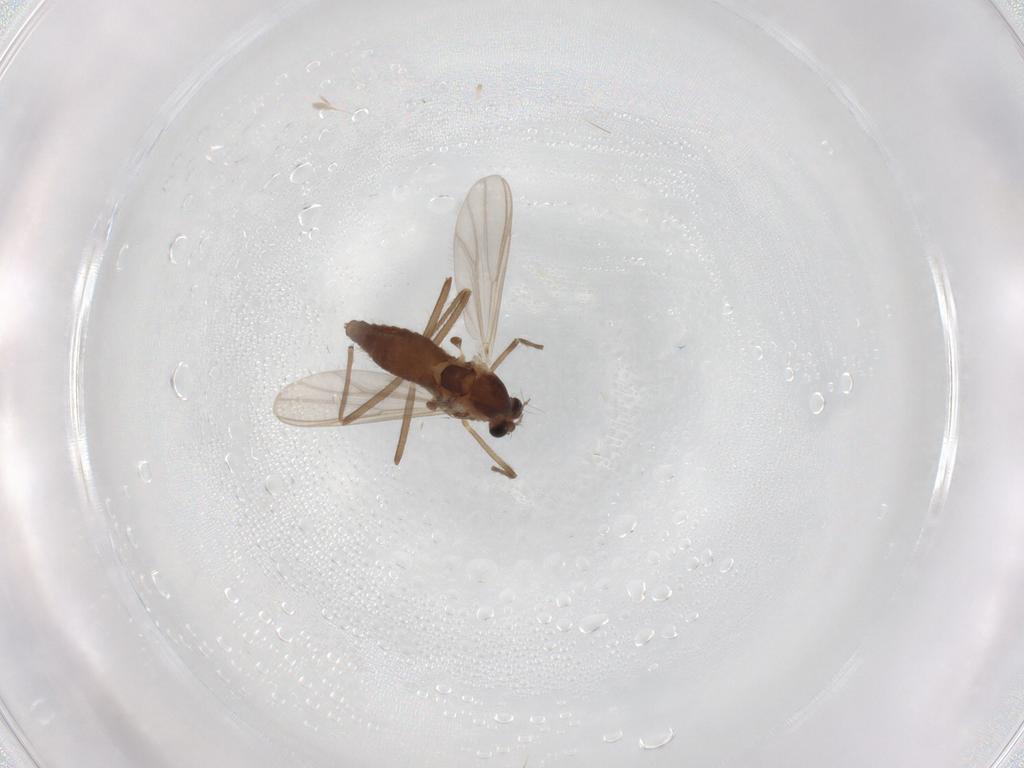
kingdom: Animalia
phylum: Arthropoda
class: Insecta
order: Diptera
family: Chironomidae
